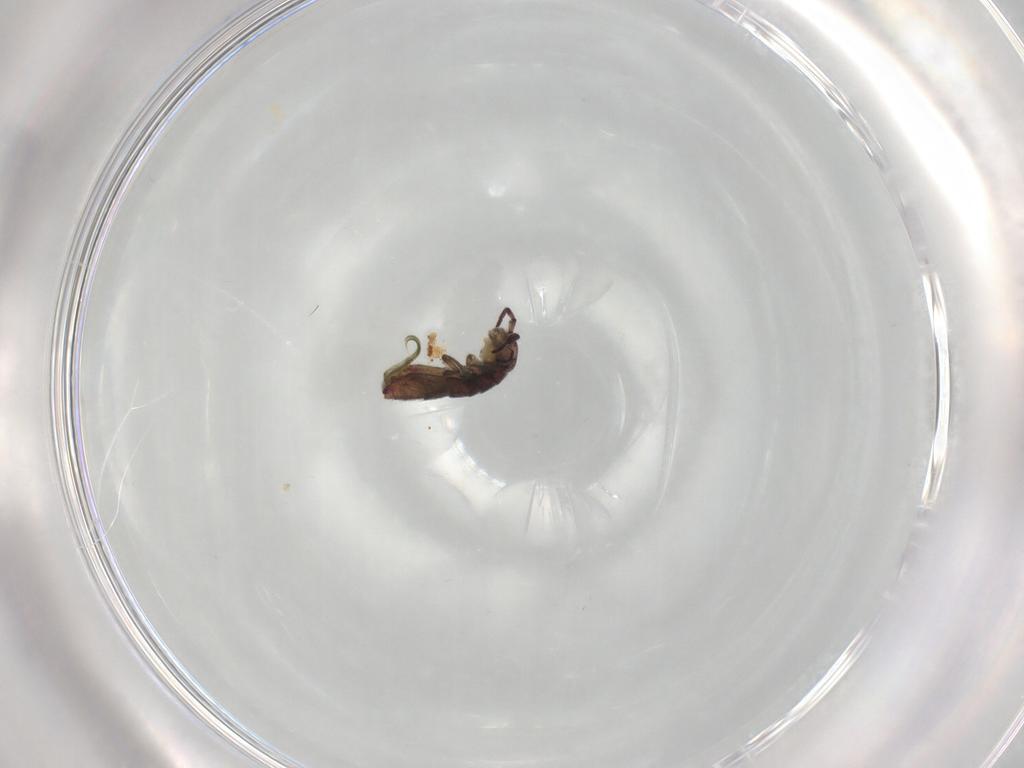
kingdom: Animalia
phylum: Arthropoda
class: Collembola
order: Entomobryomorpha
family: Isotomidae
